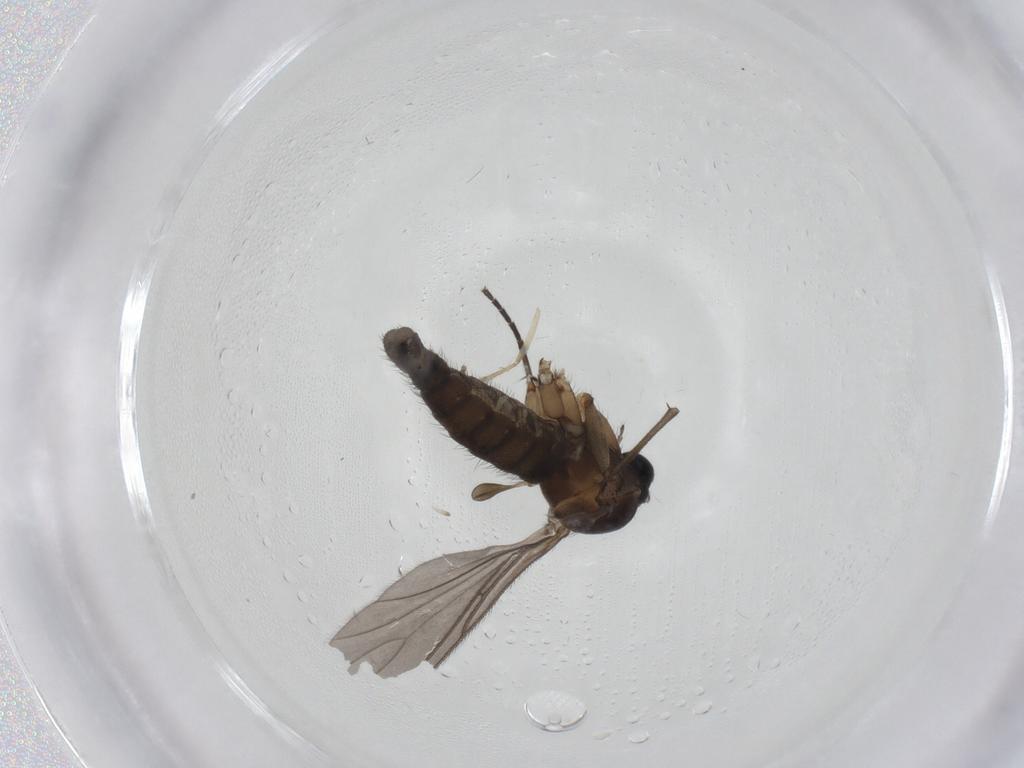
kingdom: Animalia
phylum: Arthropoda
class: Insecta
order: Diptera
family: Sciaridae
